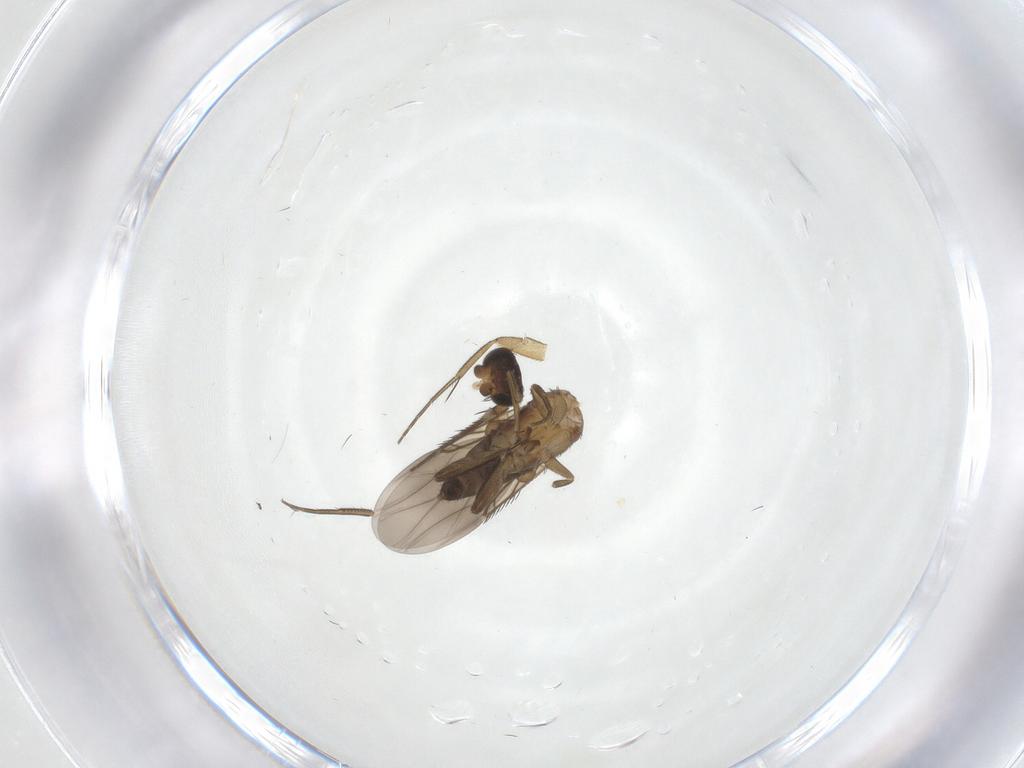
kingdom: Animalia
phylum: Arthropoda
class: Insecta
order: Diptera
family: Phoridae
